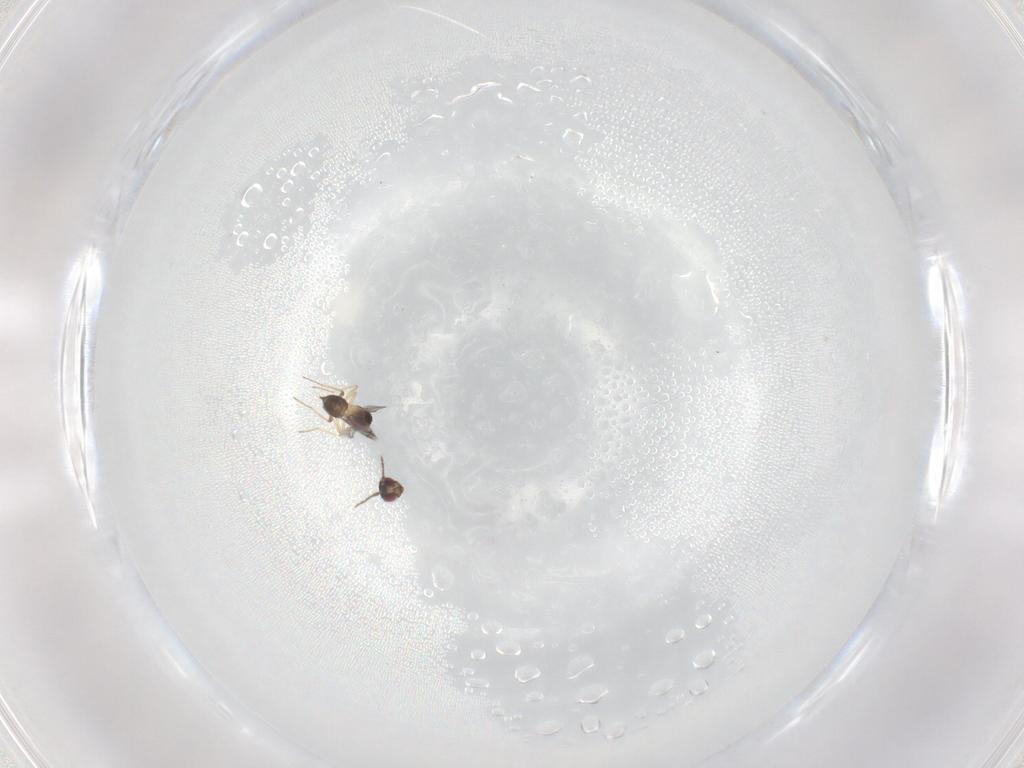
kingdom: Animalia
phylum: Arthropoda
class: Insecta
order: Hymenoptera
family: Eulophidae
